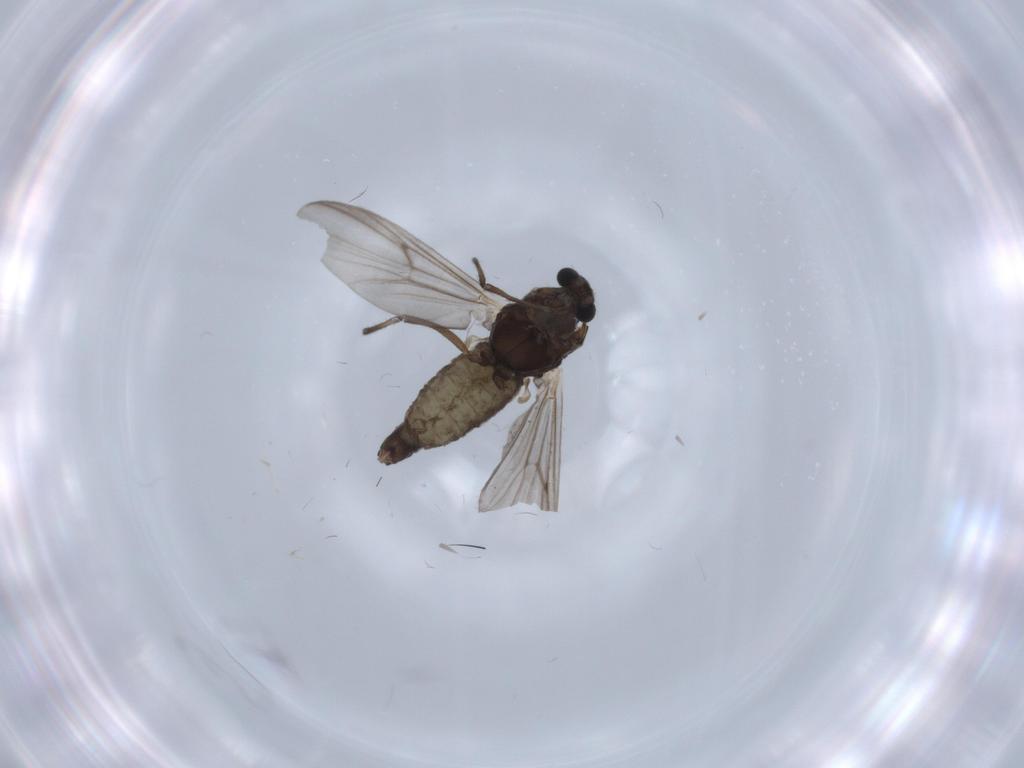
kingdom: Animalia
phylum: Arthropoda
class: Insecta
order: Diptera
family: Chironomidae
